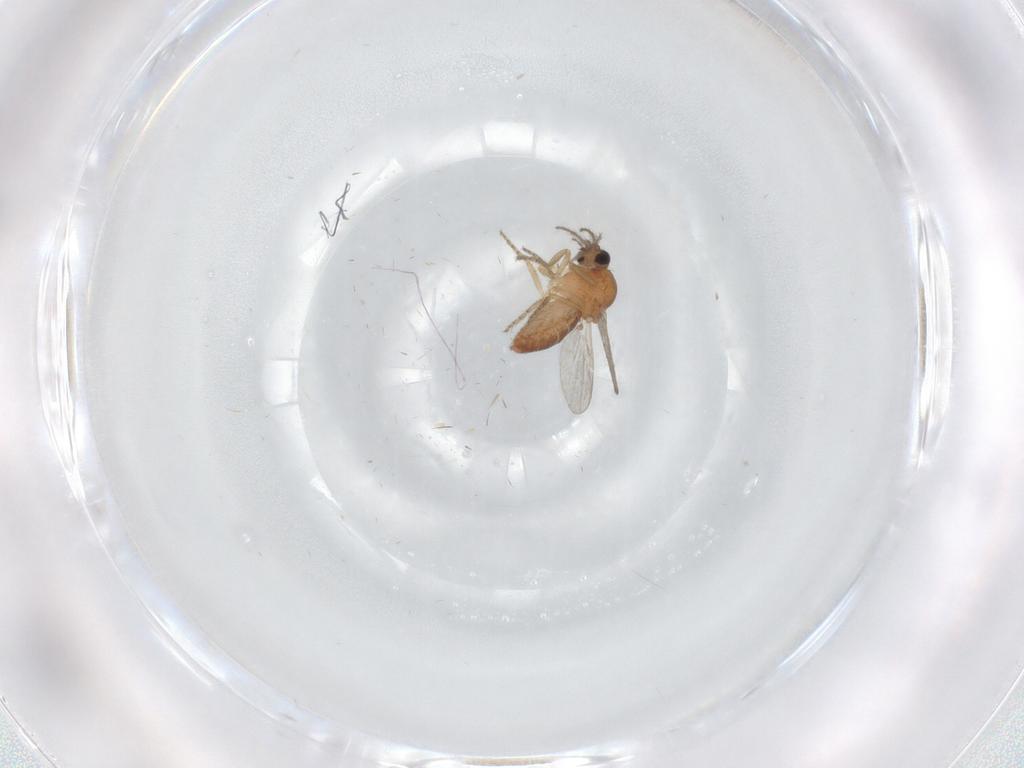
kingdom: Animalia
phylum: Arthropoda
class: Insecta
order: Diptera
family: Ceratopogonidae
